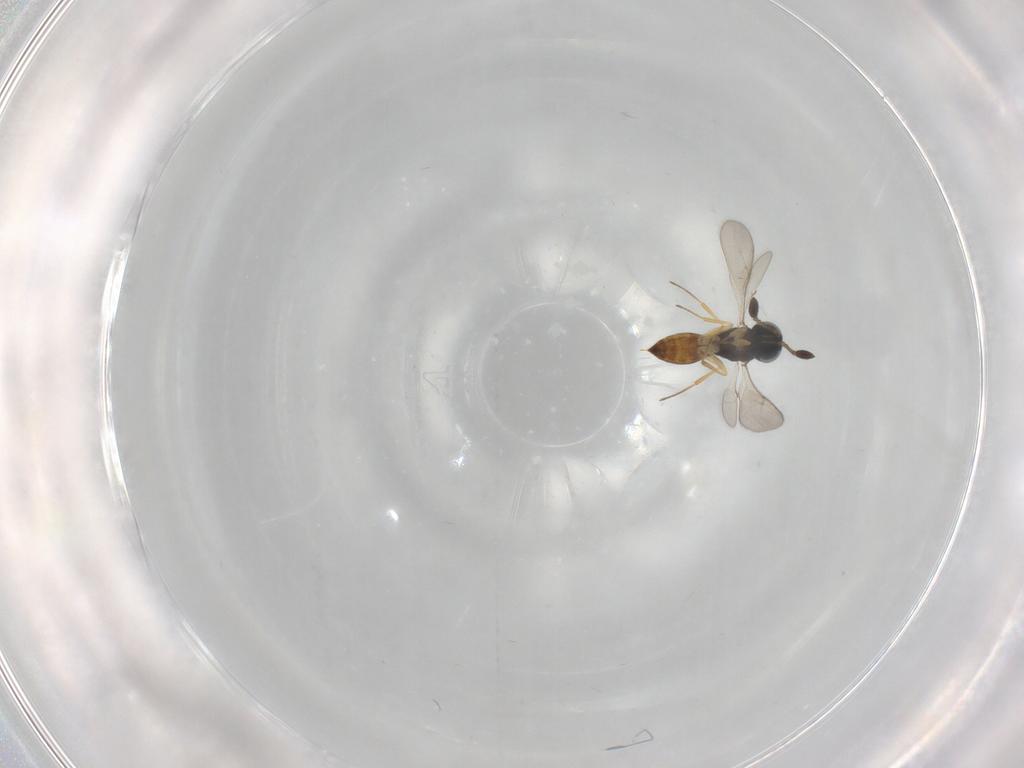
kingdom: Animalia
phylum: Arthropoda
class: Insecta
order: Hymenoptera
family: Scelionidae
